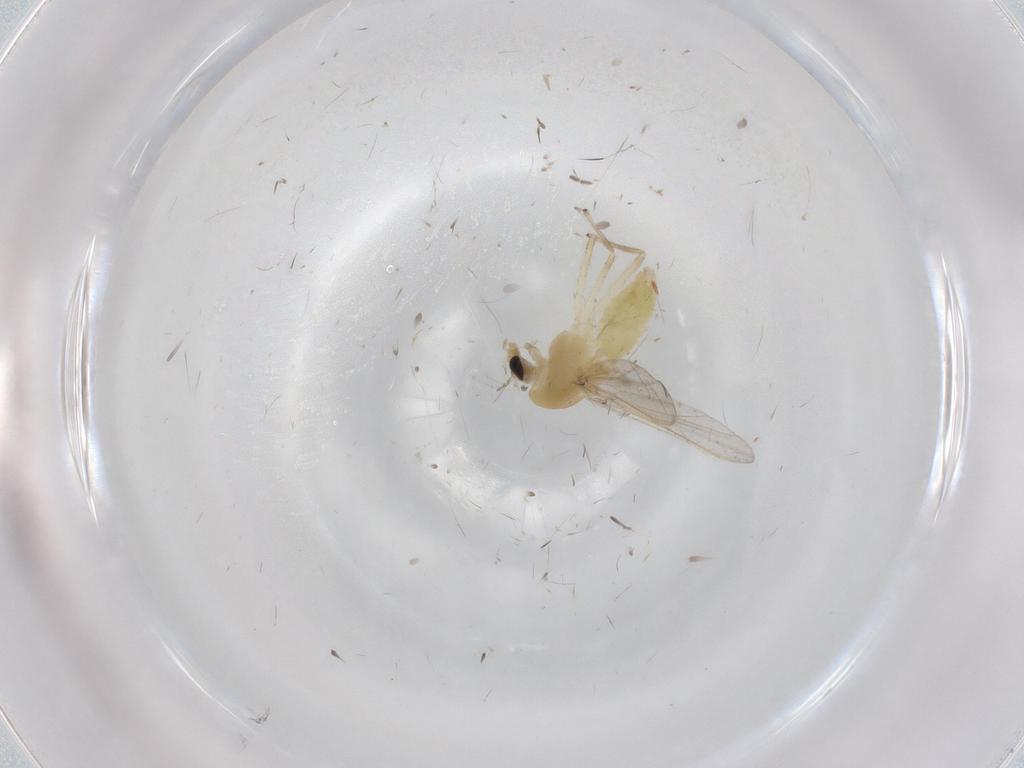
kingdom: Animalia
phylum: Arthropoda
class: Insecta
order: Diptera
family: Chironomidae
